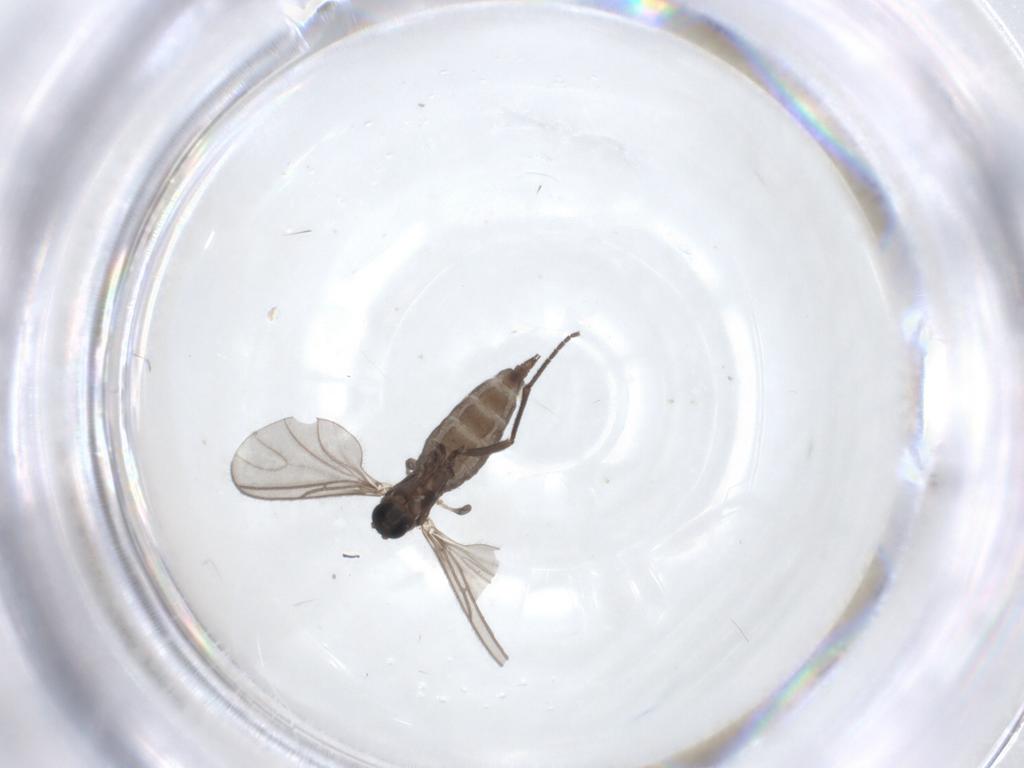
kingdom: Animalia
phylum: Arthropoda
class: Insecta
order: Diptera
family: Sciaridae
